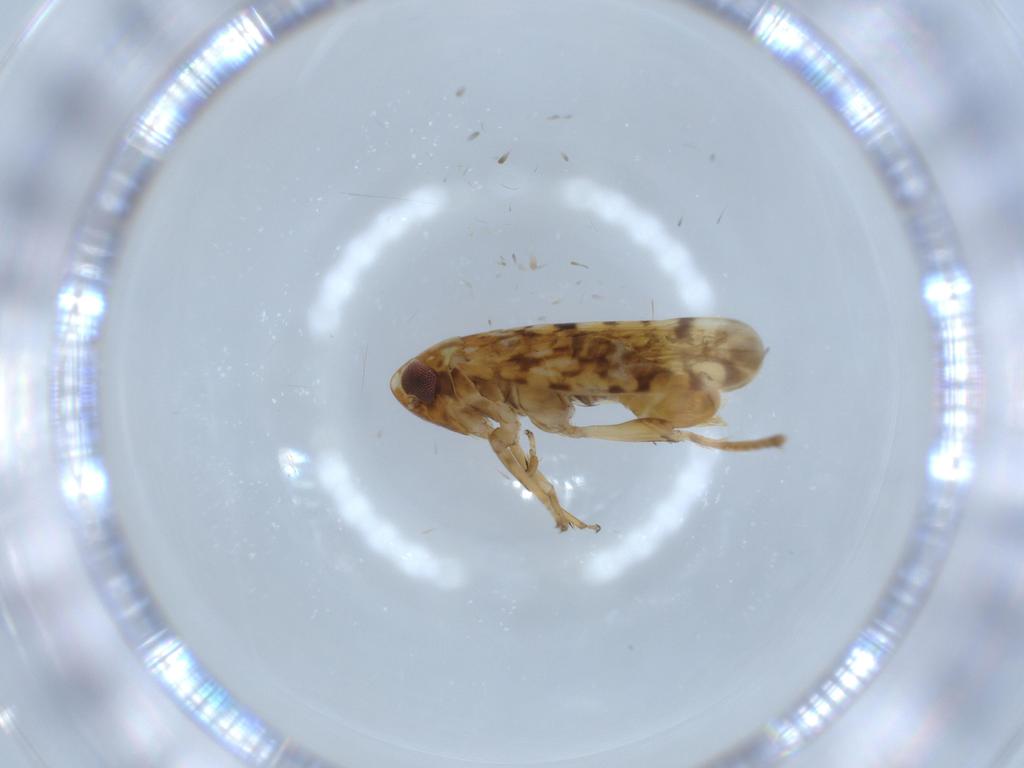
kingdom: Animalia
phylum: Arthropoda
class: Insecta
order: Hemiptera
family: Cicadellidae
